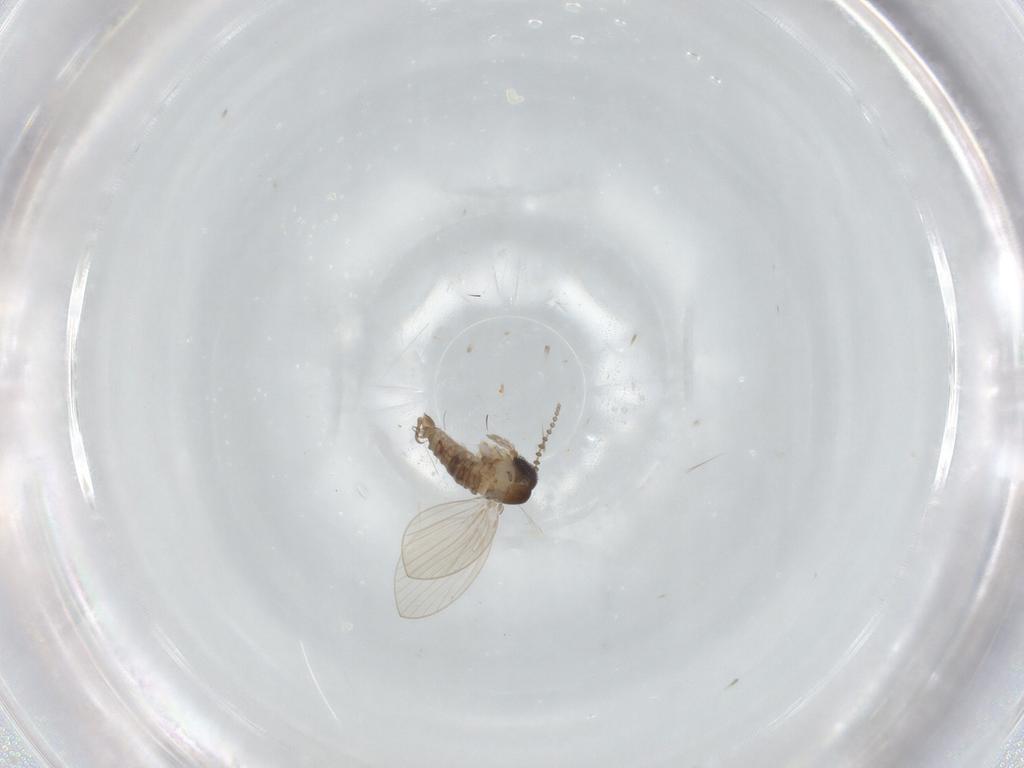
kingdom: Animalia
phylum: Arthropoda
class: Insecta
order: Diptera
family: Psychodidae
